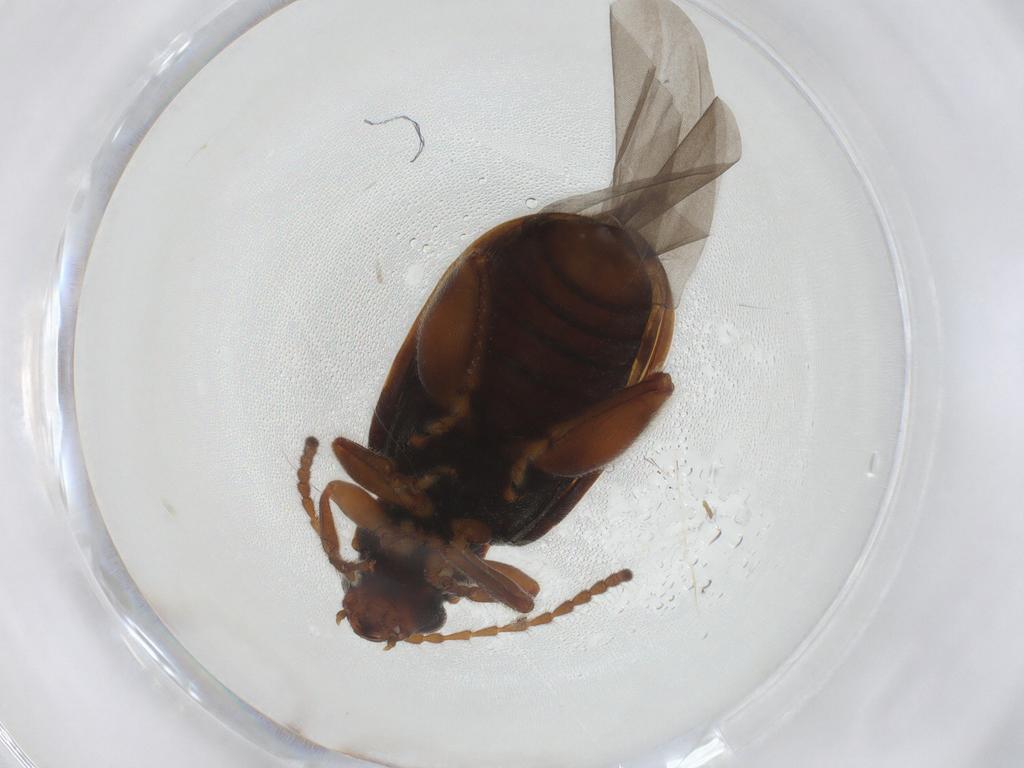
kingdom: Animalia
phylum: Arthropoda
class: Insecta
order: Coleoptera
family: Chrysomelidae
